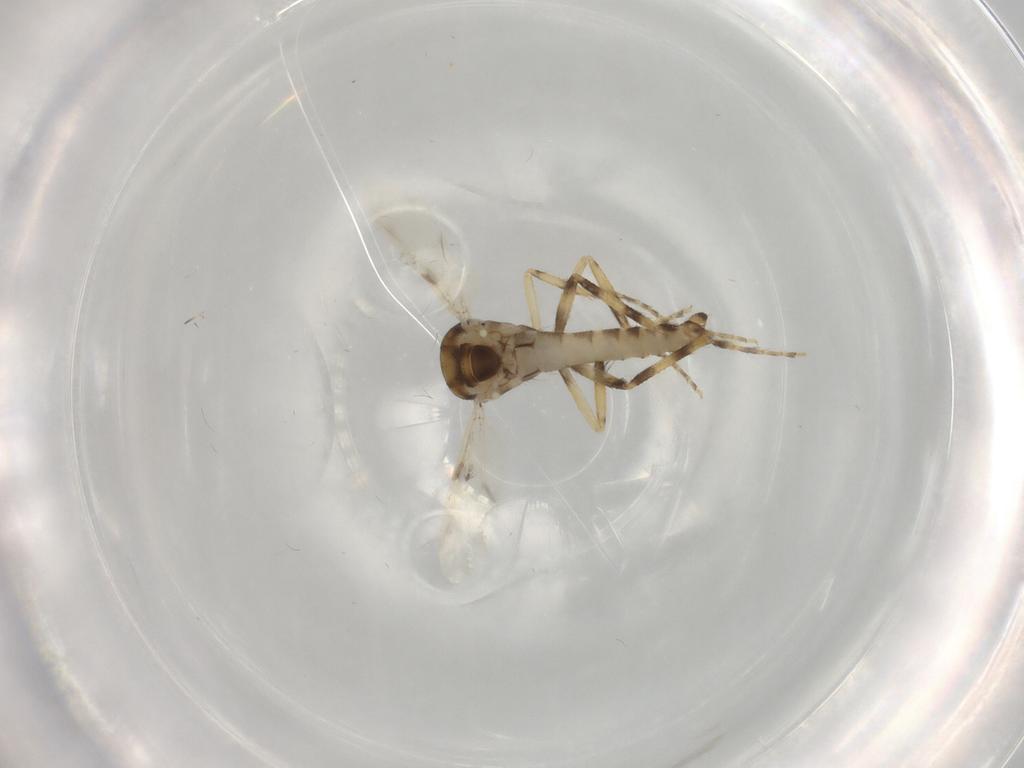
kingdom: Animalia
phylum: Arthropoda
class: Insecta
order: Diptera
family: Ceratopogonidae
